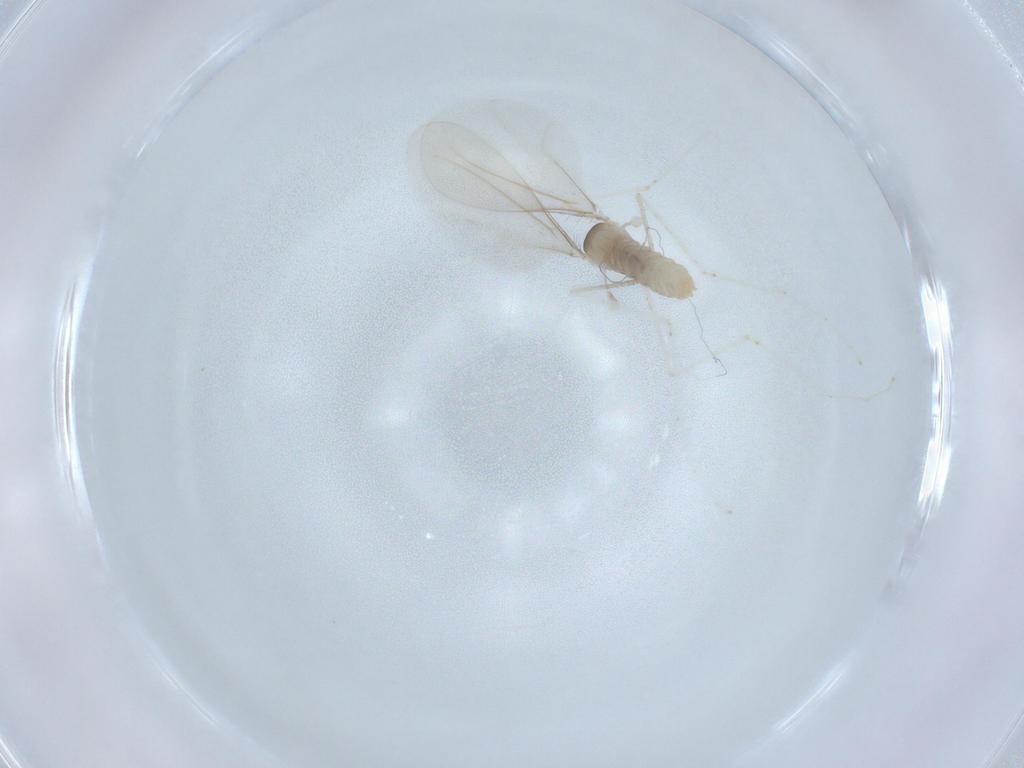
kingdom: Animalia
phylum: Arthropoda
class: Insecta
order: Diptera
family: Cecidomyiidae
